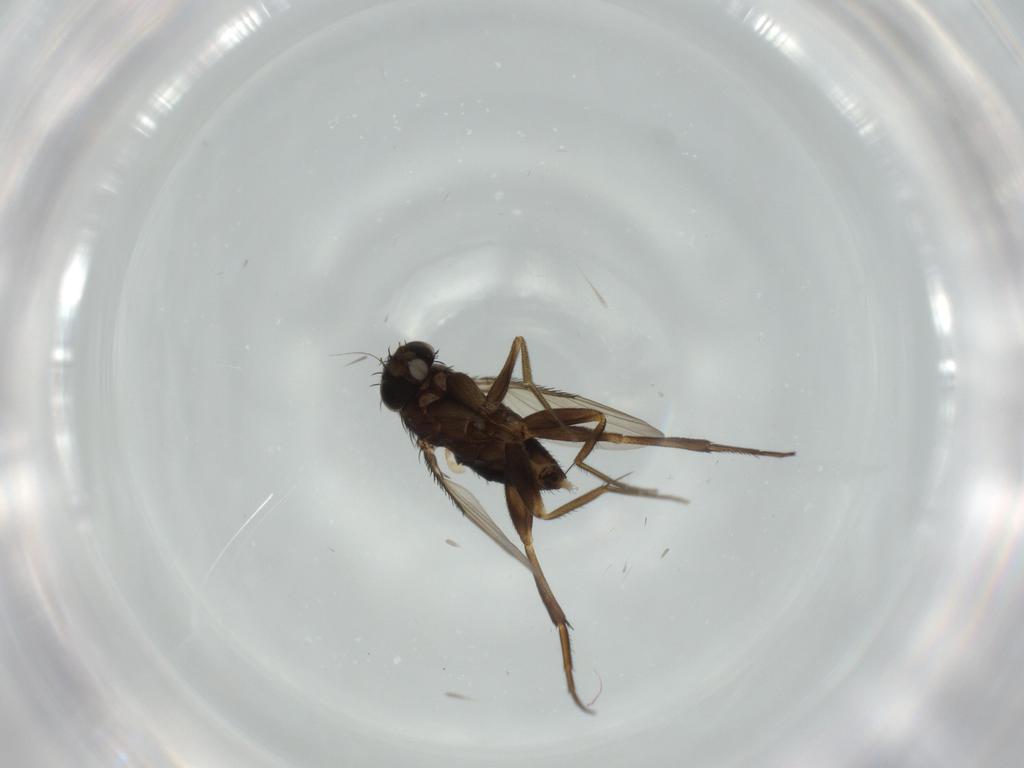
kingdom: Animalia
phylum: Arthropoda
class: Insecta
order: Diptera
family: Phoridae
